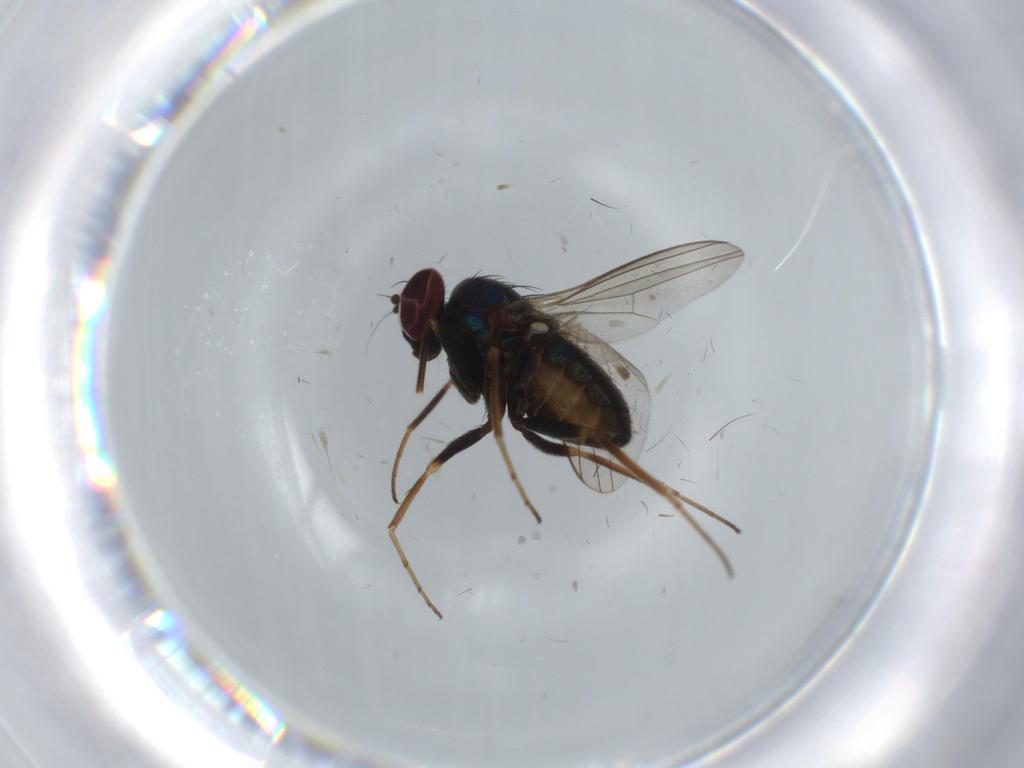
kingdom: Animalia
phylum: Arthropoda
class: Insecta
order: Diptera
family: Dolichopodidae
